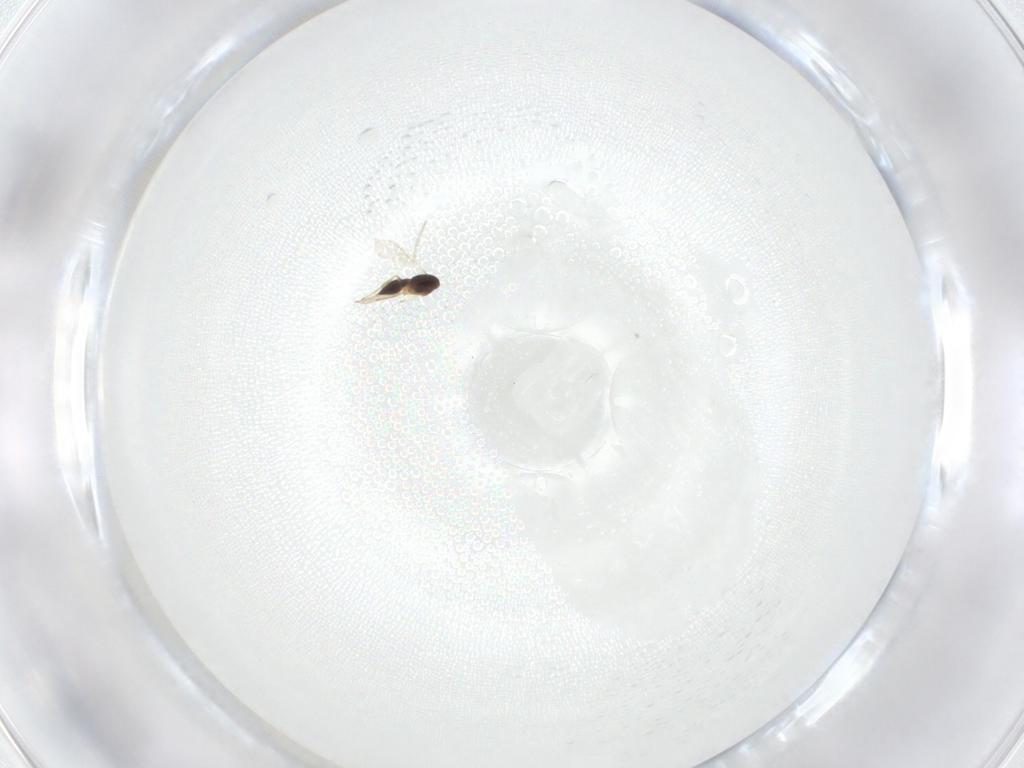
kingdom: Animalia
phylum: Arthropoda
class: Insecta
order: Hymenoptera
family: Scelionidae
